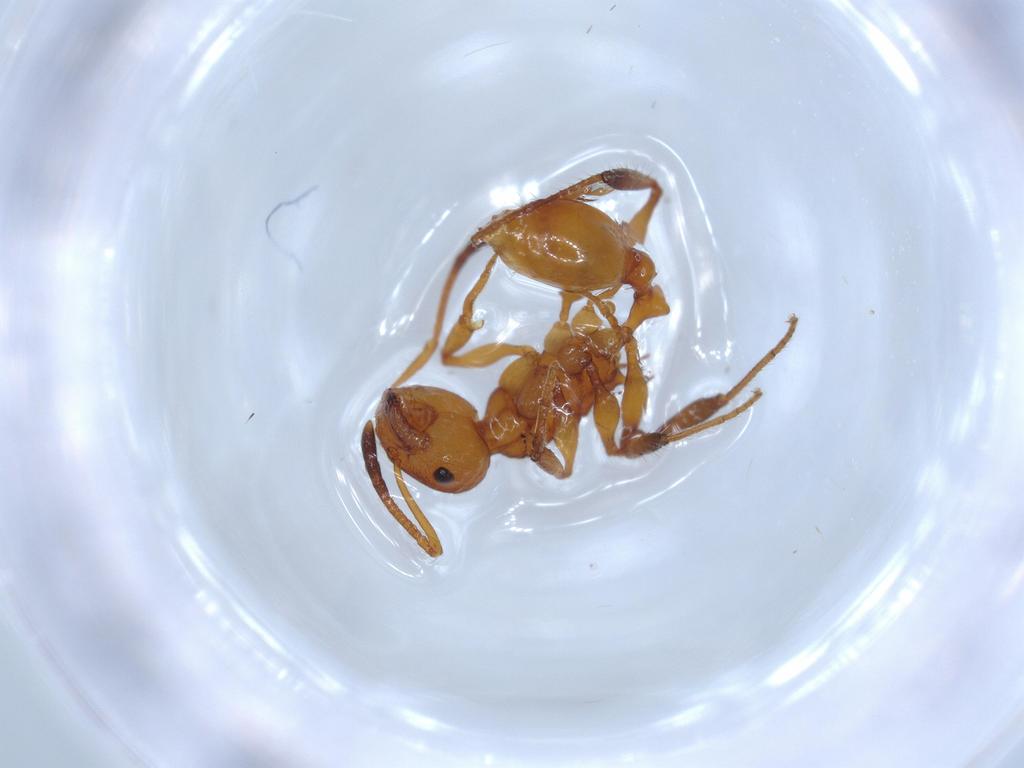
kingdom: Animalia
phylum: Arthropoda
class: Insecta
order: Hymenoptera
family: Formicidae
